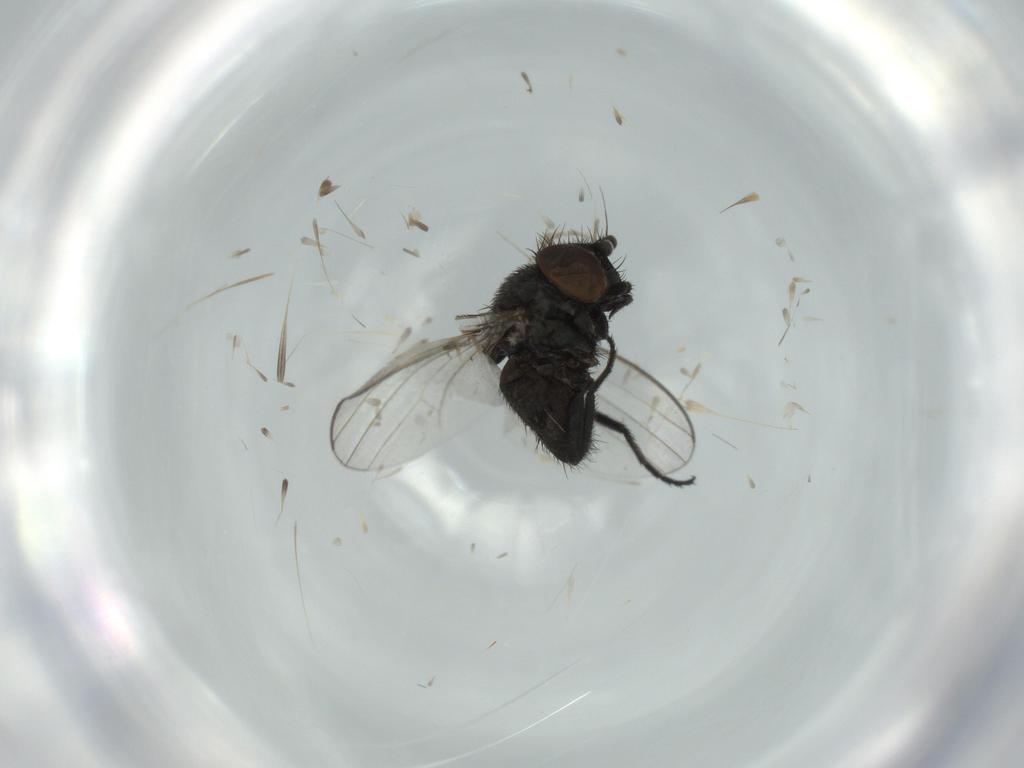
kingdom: Animalia
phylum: Arthropoda
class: Insecta
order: Diptera
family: Milichiidae
